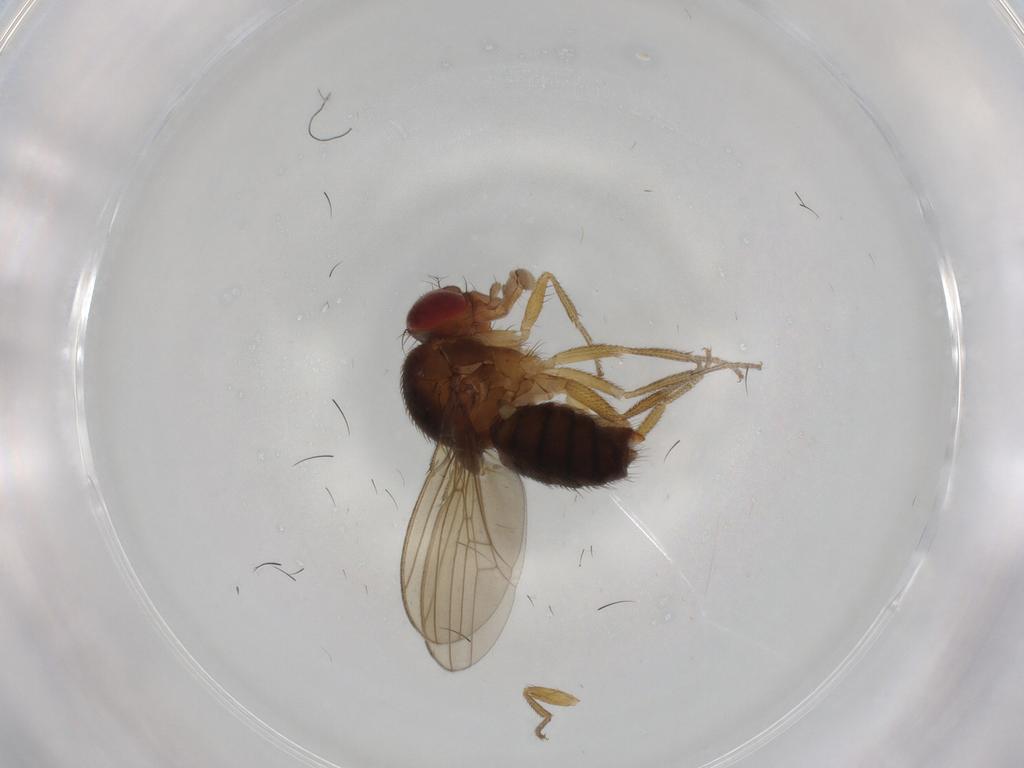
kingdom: Animalia
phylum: Arthropoda
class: Insecta
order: Diptera
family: Drosophilidae
